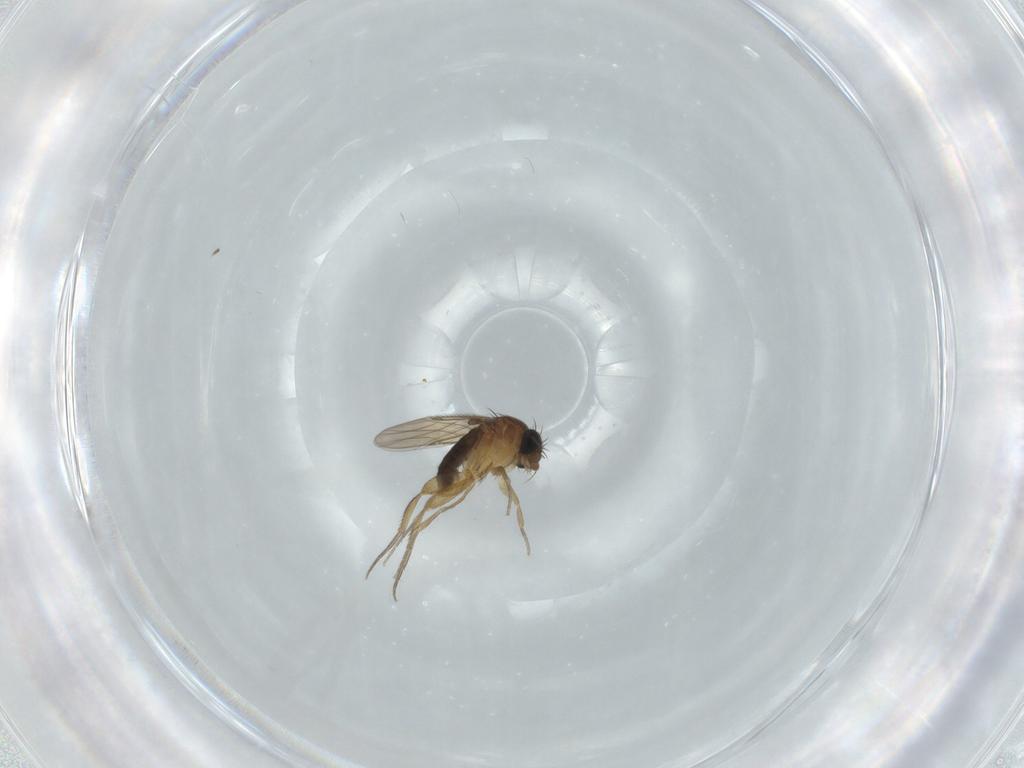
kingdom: Animalia
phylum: Arthropoda
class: Insecta
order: Diptera
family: Phoridae
